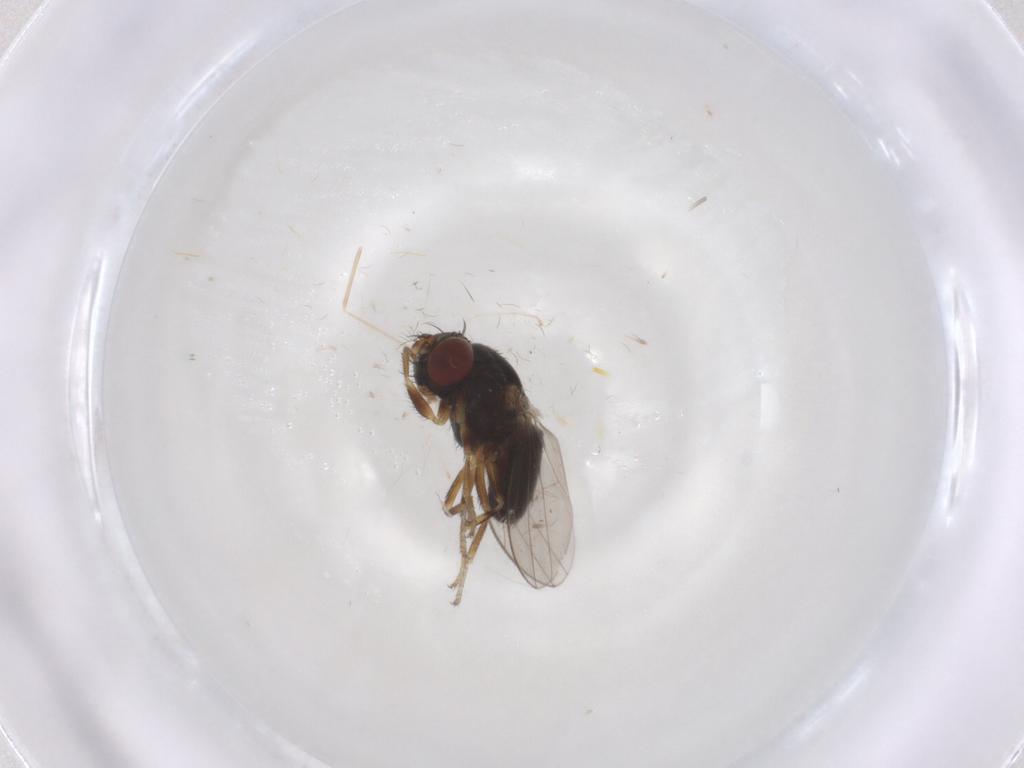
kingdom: Animalia
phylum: Arthropoda
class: Insecta
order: Diptera
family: Ephydridae
